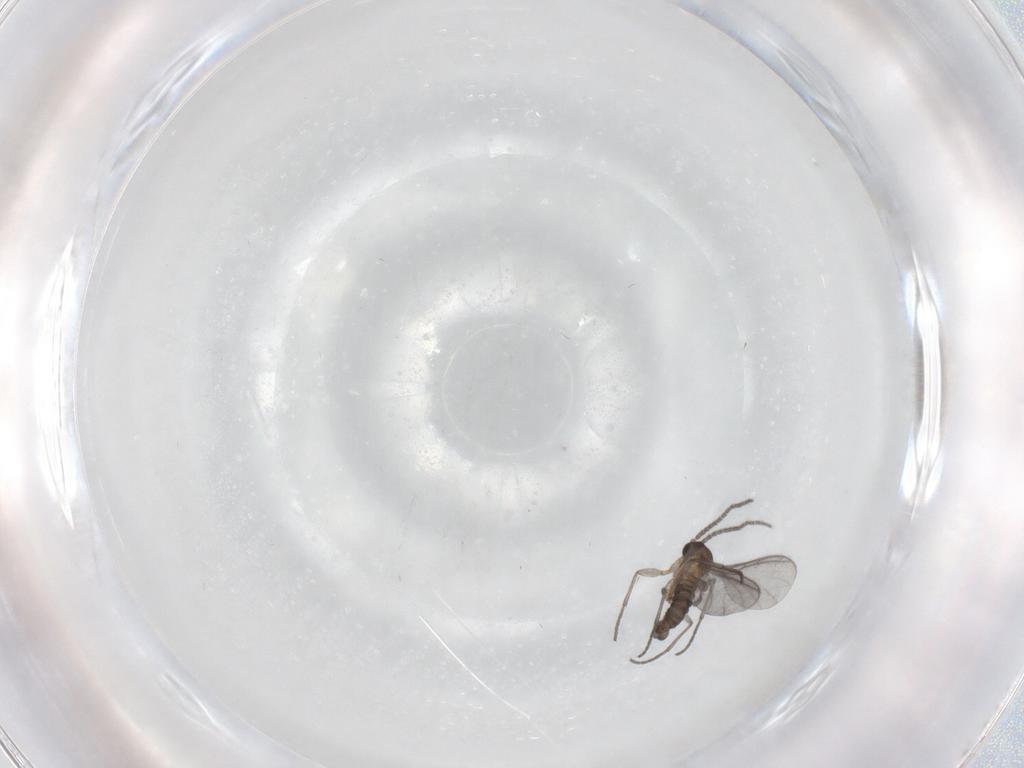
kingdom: Animalia
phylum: Arthropoda
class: Insecta
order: Diptera
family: Sciaridae
